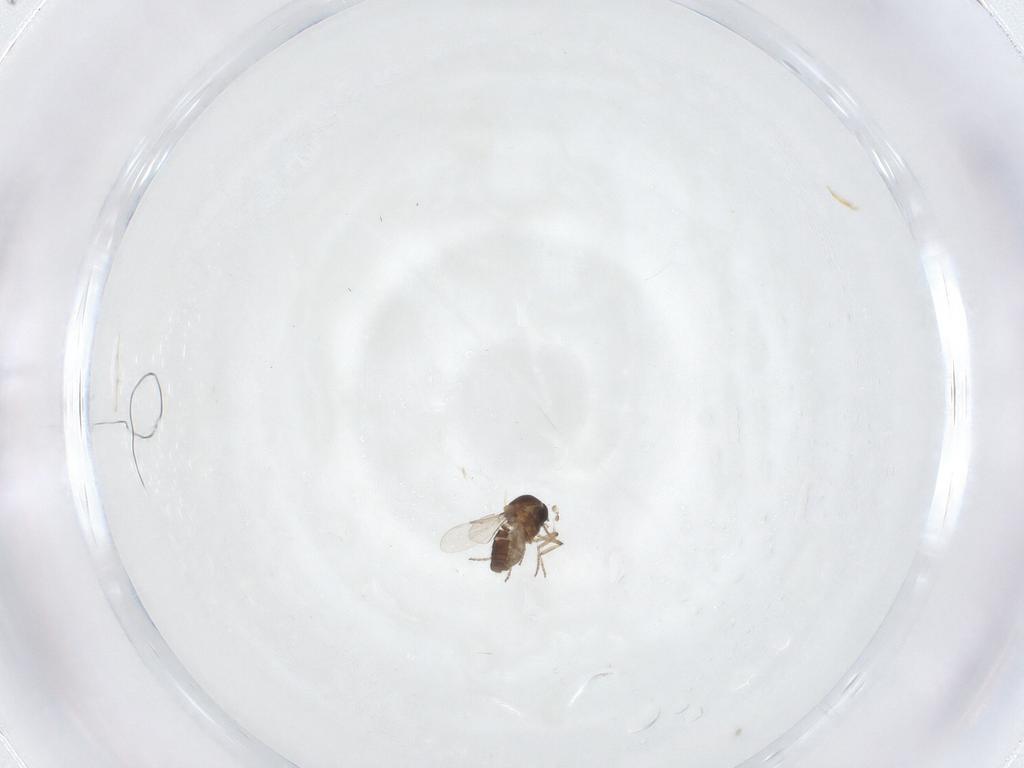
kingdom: Animalia
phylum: Arthropoda
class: Insecta
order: Diptera
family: Ceratopogonidae
